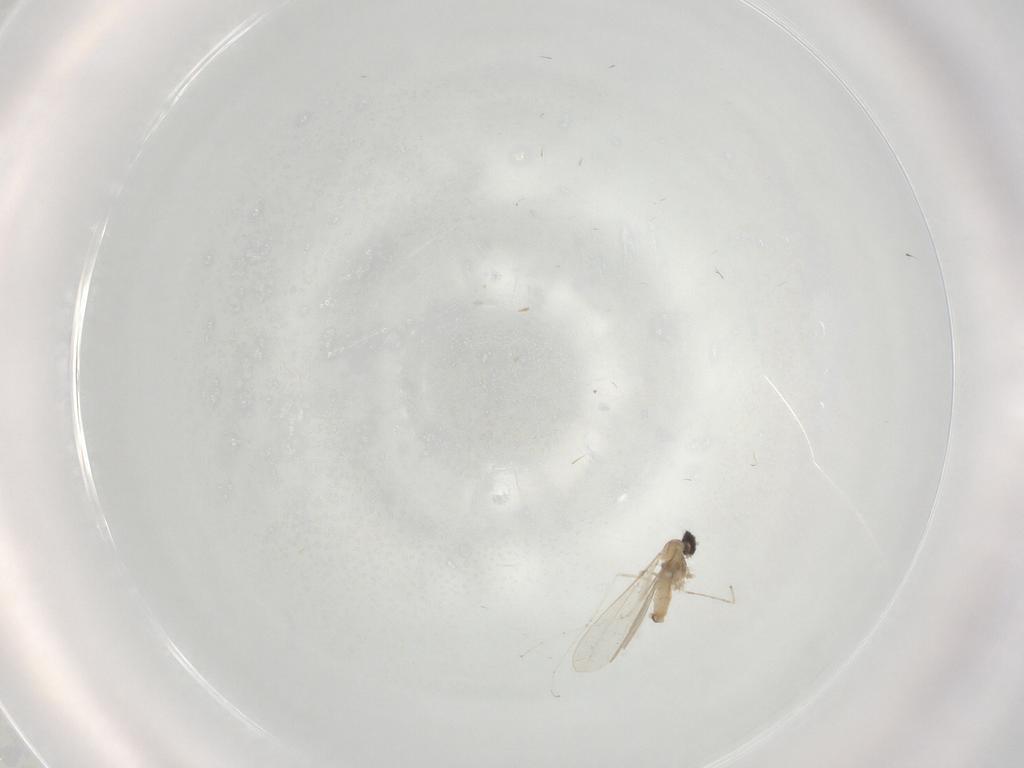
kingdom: Animalia
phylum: Arthropoda
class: Insecta
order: Diptera
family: Cecidomyiidae
